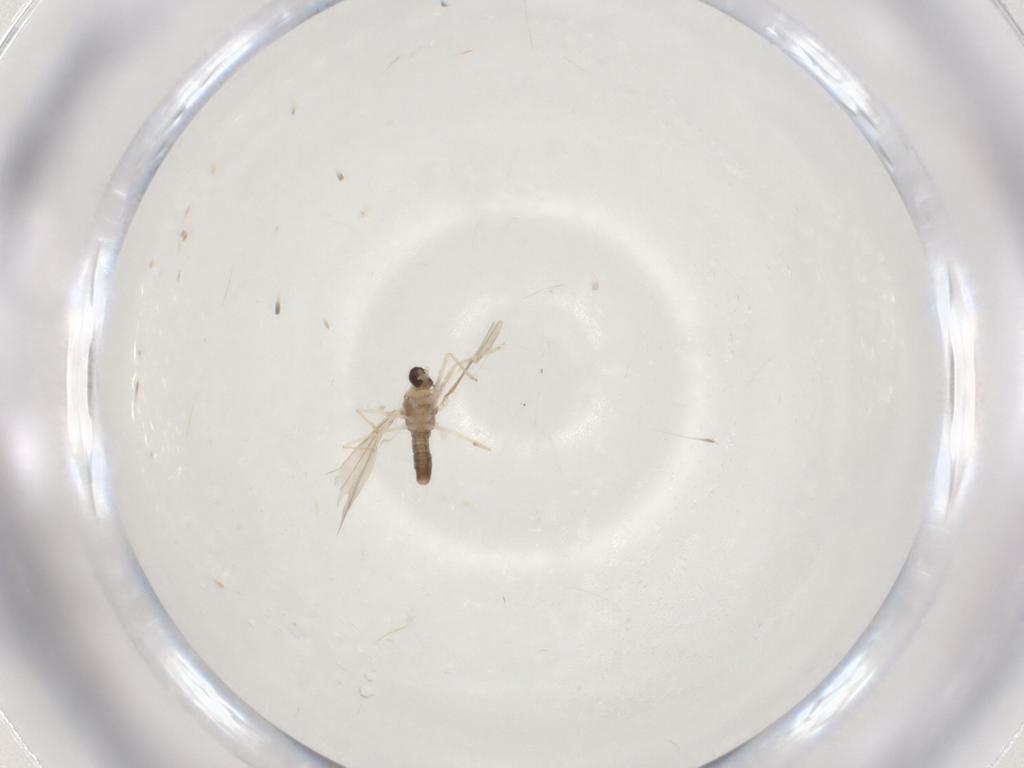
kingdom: Animalia
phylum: Arthropoda
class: Insecta
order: Diptera
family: Cecidomyiidae
